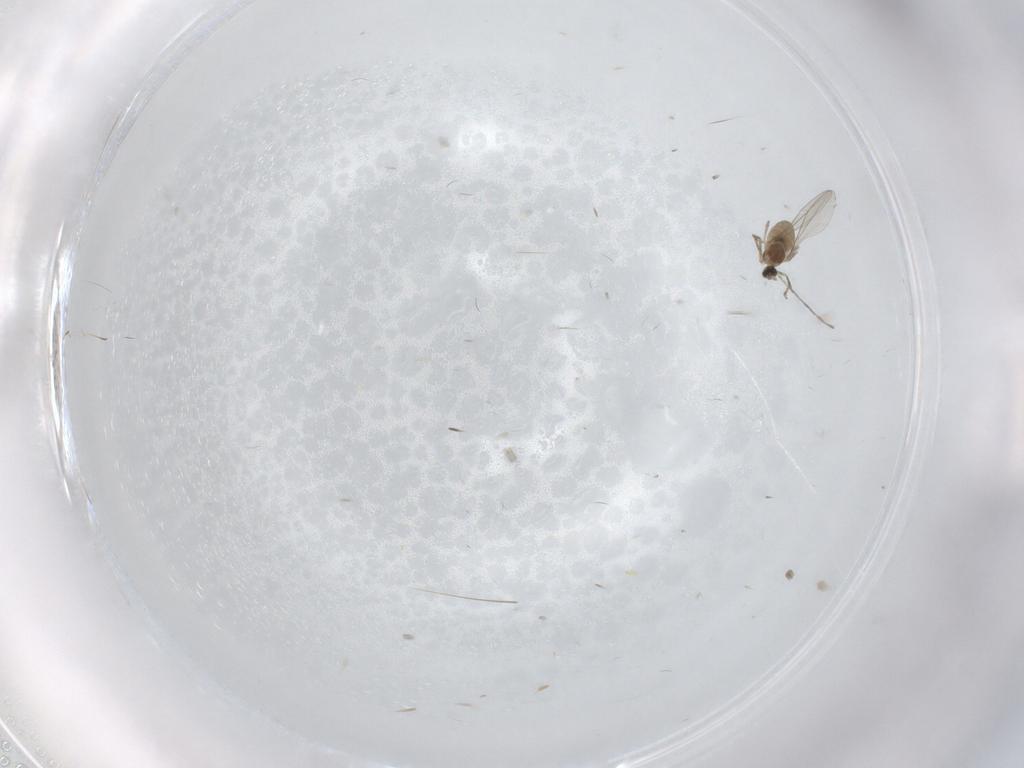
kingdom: Animalia
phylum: Arthropoda
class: Insecta
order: Diptera
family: Cecidomyiidae
